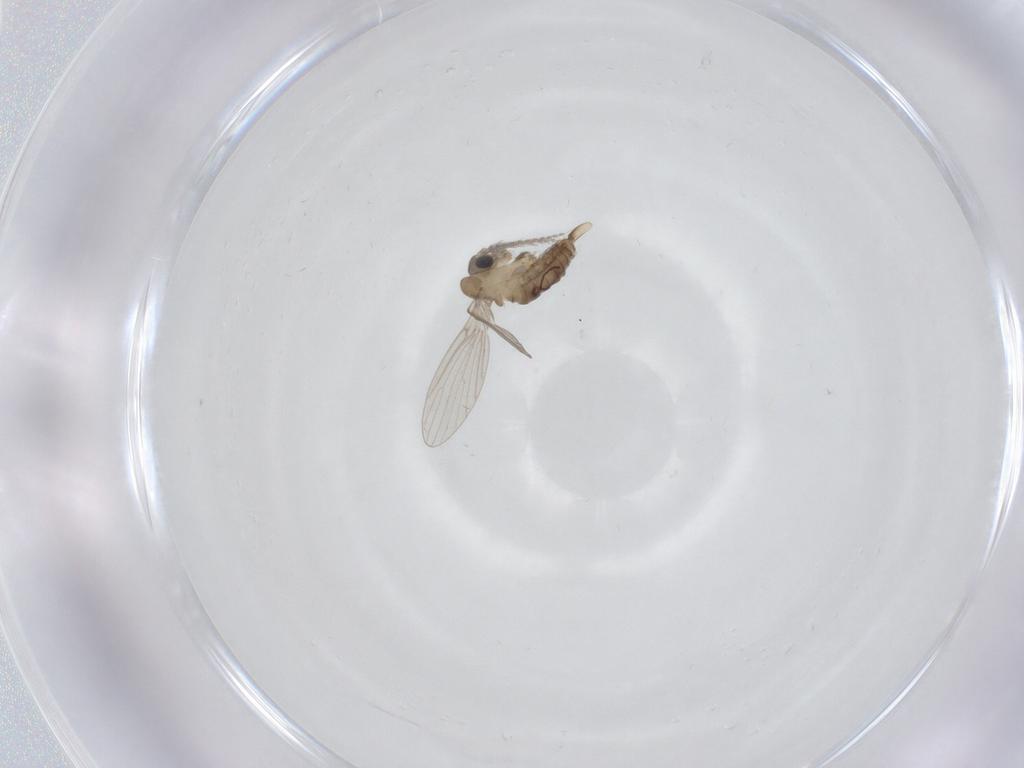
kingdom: Animalia
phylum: Arthropoda
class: Insecta
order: Diptera
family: Psychodidae
